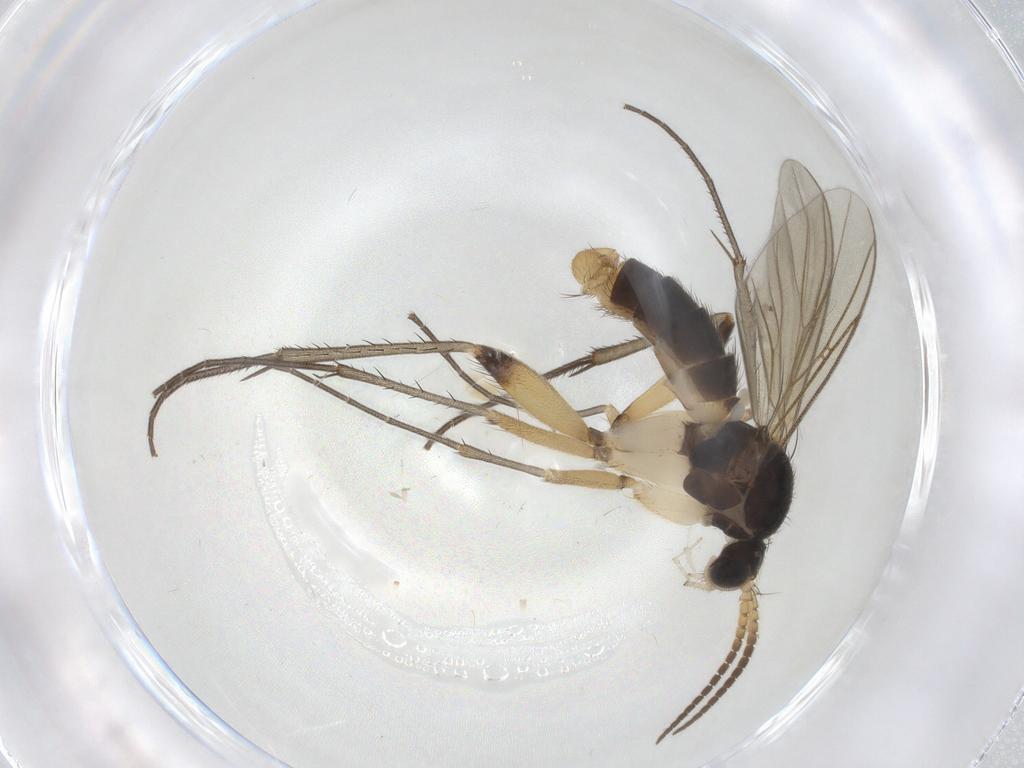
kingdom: Animalia
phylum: Arthropoda
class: Insecta
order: Diptera
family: Mycetophilidae
